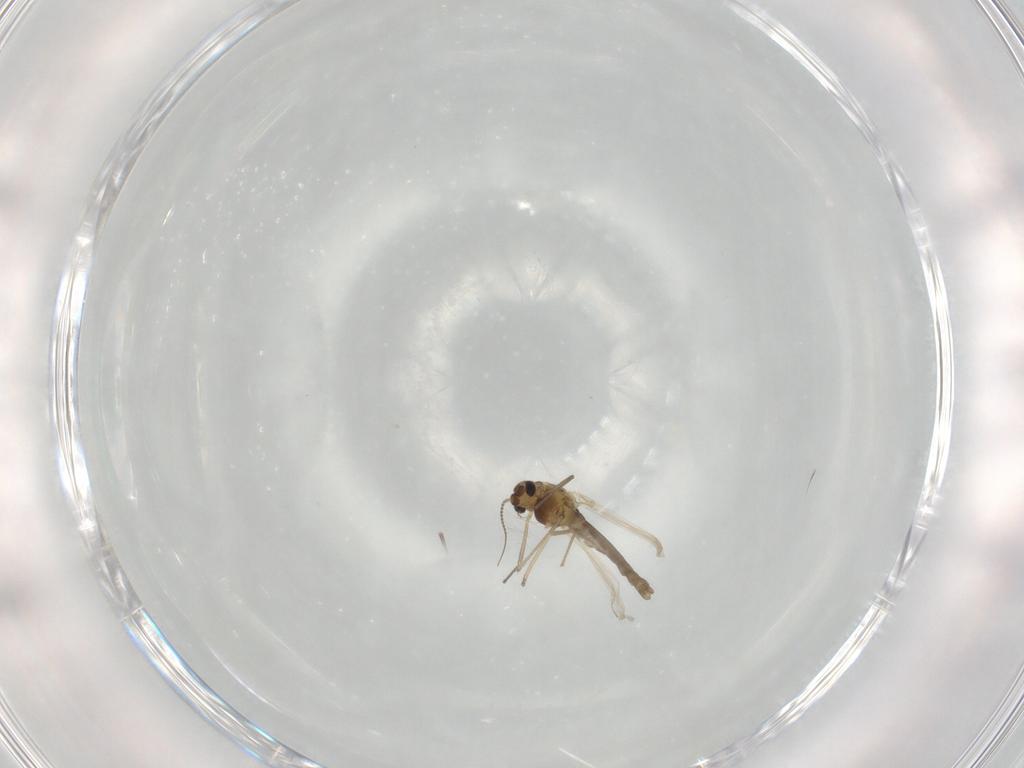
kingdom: Animalia
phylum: Arthropoda
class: Insecta
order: Diptera
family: Chironomidae
